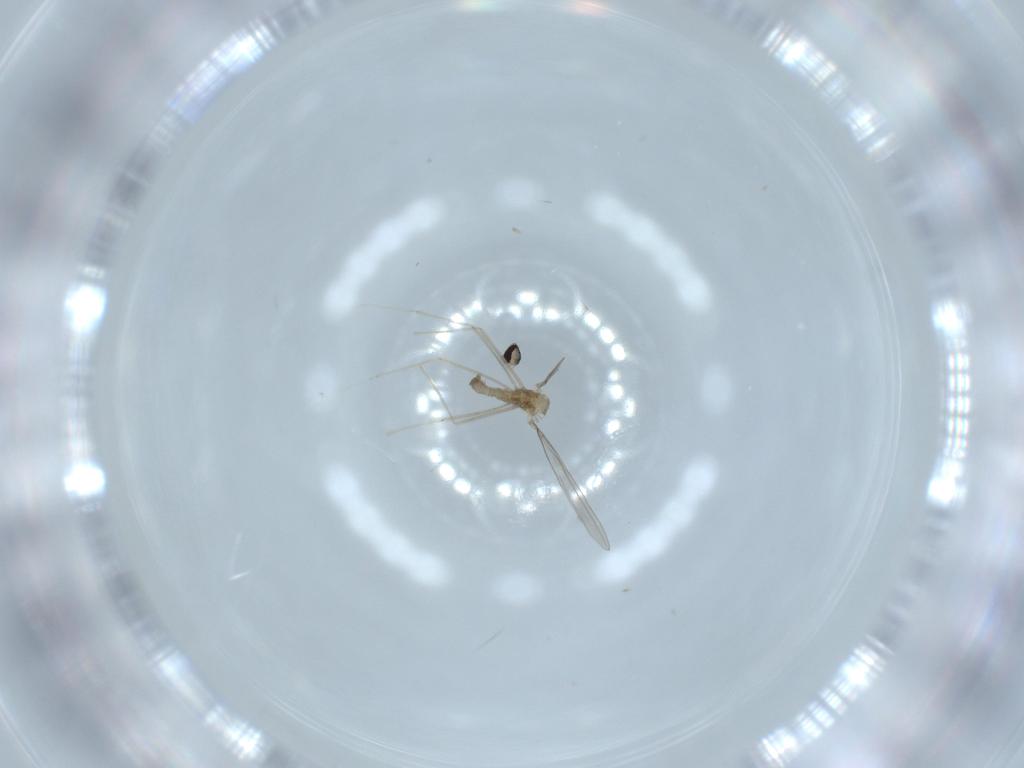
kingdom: Animalia
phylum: Arthropoda
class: Insecta
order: Diptera
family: Cecidomyiidae
